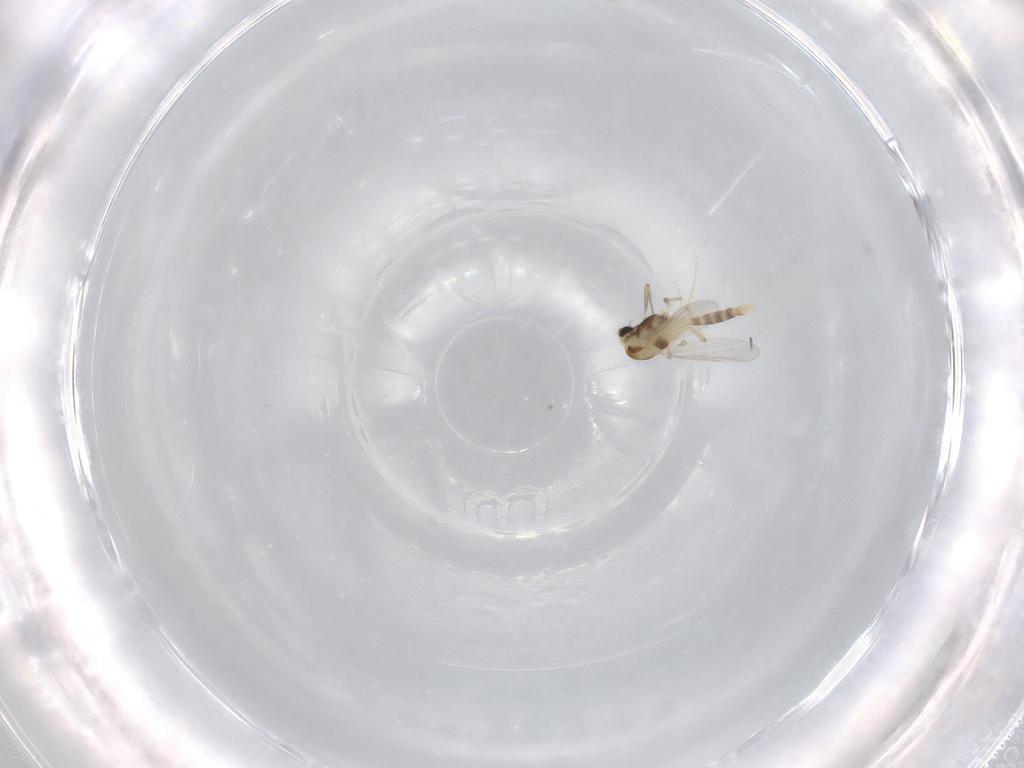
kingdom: Animalia
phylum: Arthropoda
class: Insecta
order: Diptera
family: Chironomidae
